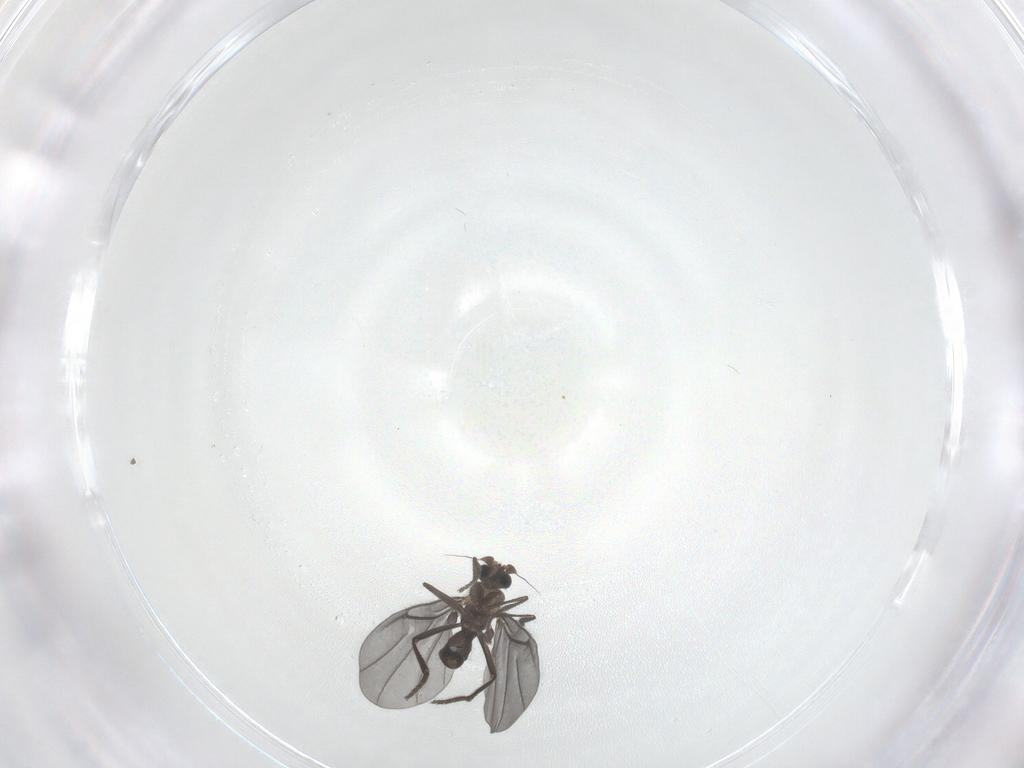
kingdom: Animalia
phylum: Arthropoda
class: Insecta
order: Diptera
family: Phoridae
